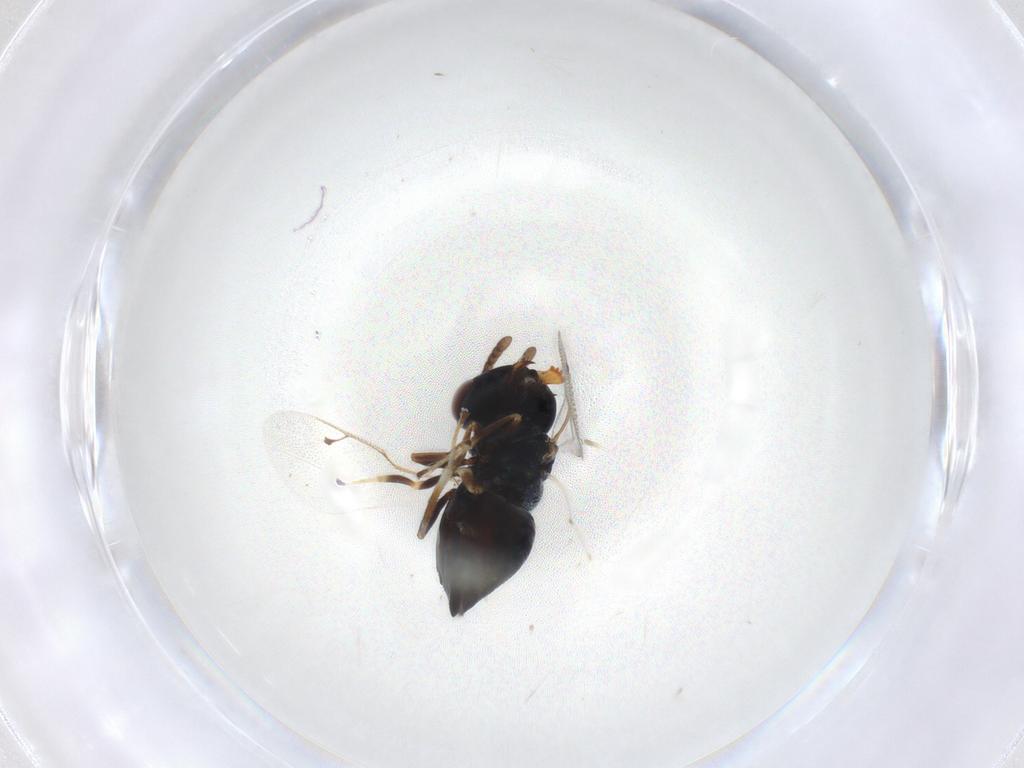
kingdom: Animalia
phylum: Arthropoda
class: Insecta
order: Hymenoptera
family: Pteromalidae
